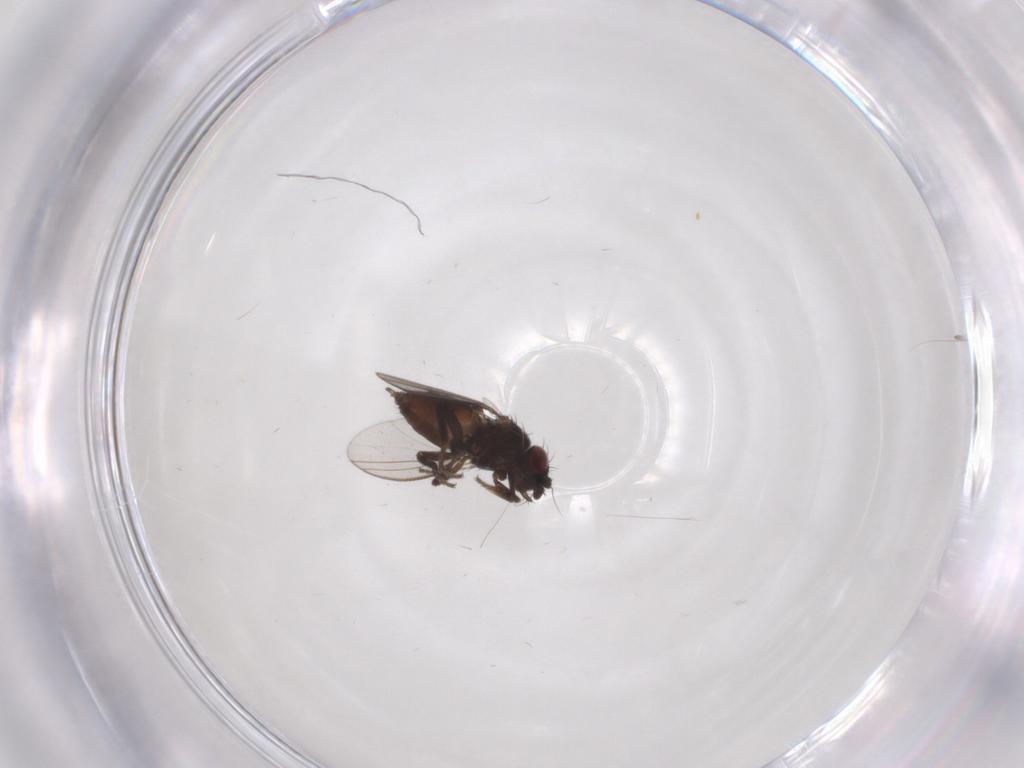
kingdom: Animalia
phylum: Arthropoda
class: Insecta
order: Diptera
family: Milichiidae
